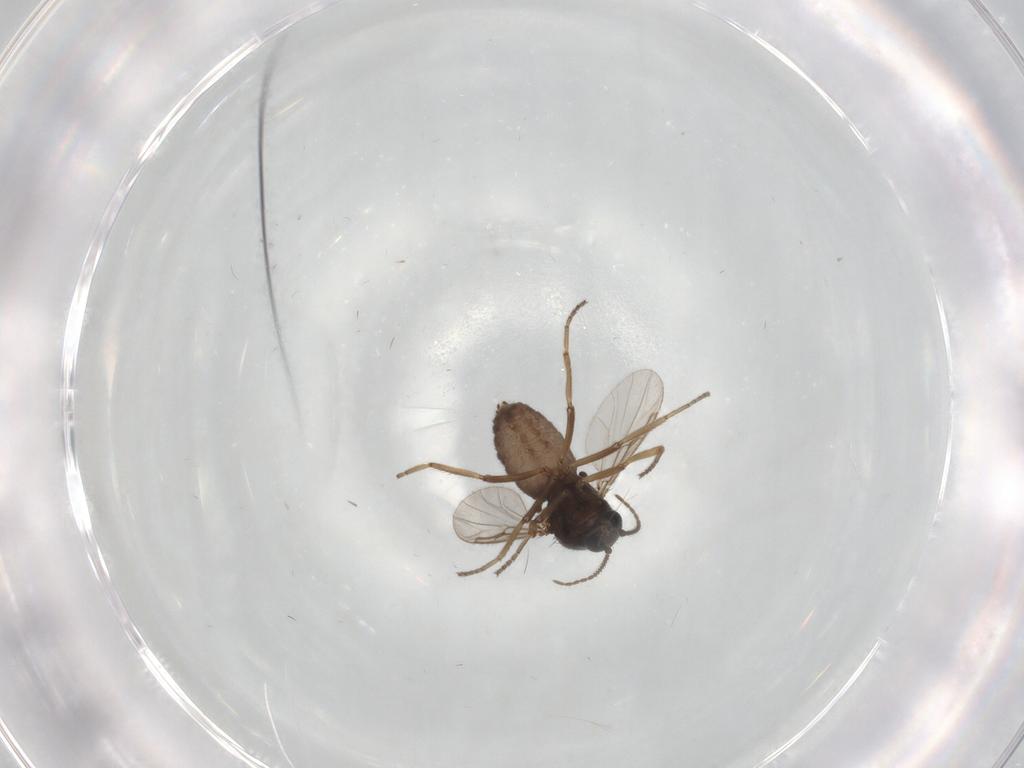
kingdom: Animalia
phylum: Arthropoda
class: Insecta
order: Diptera
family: Ceratopogonidae
